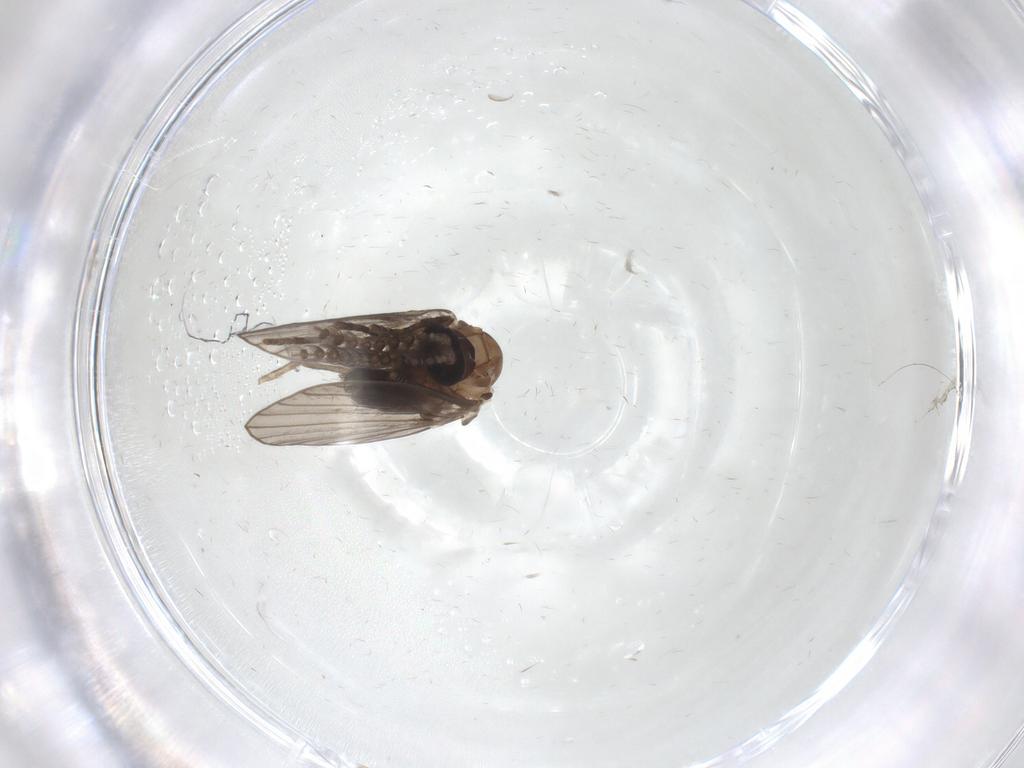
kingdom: Animalia
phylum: Arthropoda
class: Insecta
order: Diptera
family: Psychodidae
